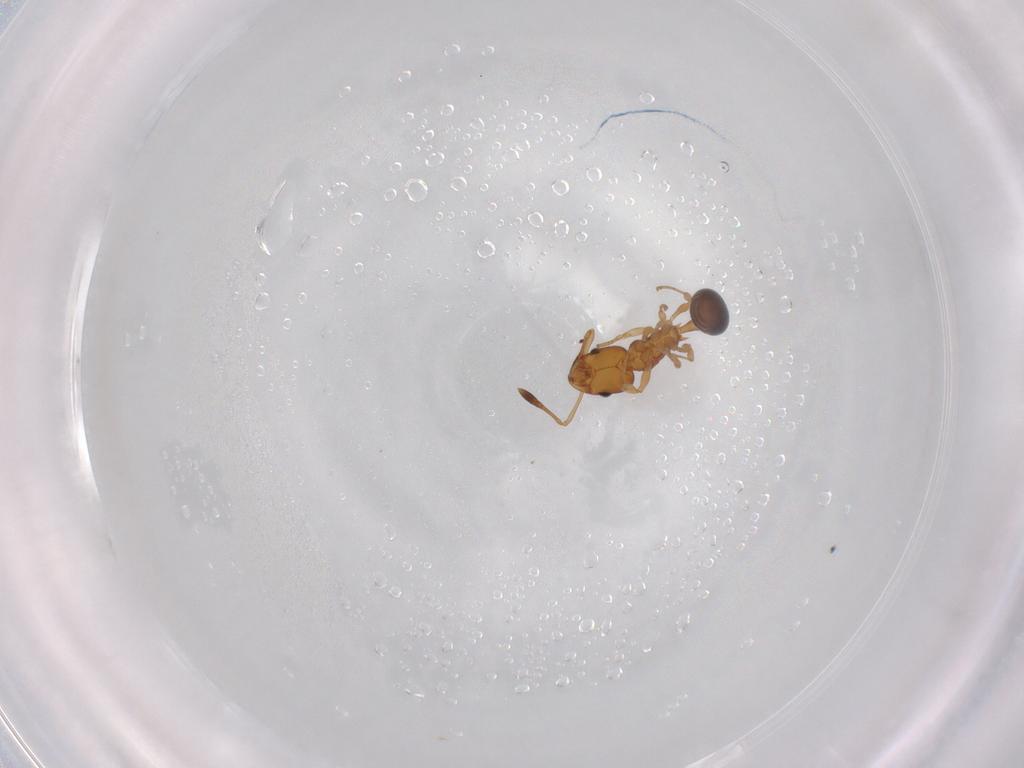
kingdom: Animalia
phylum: Arthropoda
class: Insecta
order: Hymenoptera
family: Formicidae
